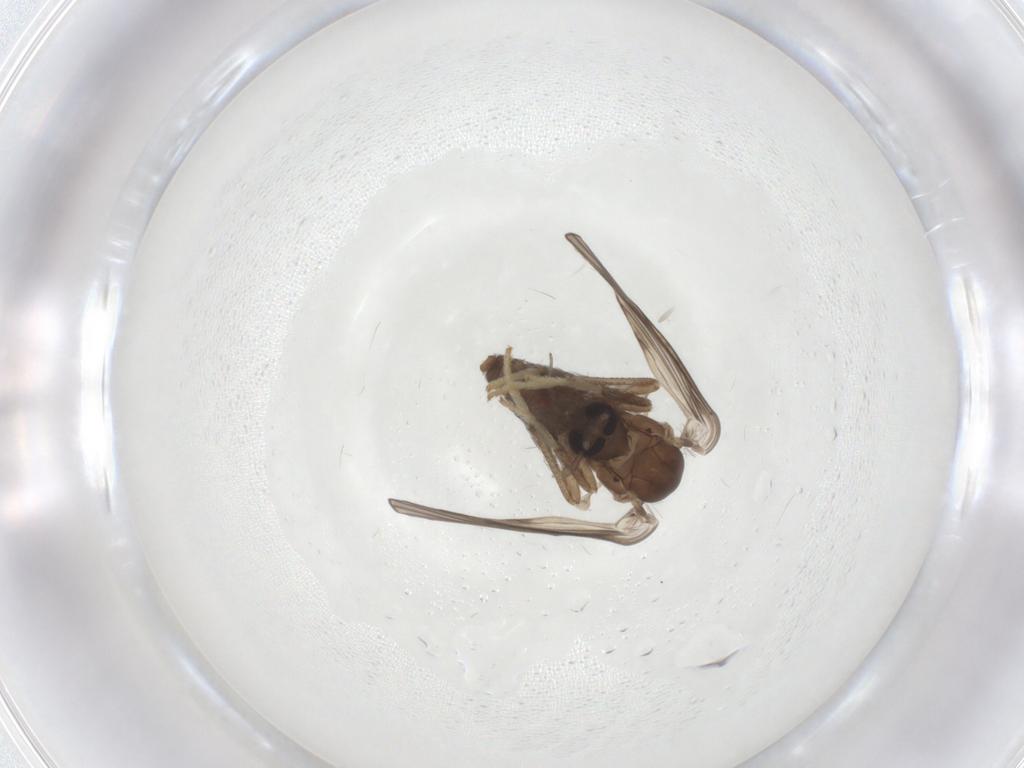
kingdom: Animalia
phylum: Arthropoda
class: Insecta
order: Diptera
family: Psychodidae
